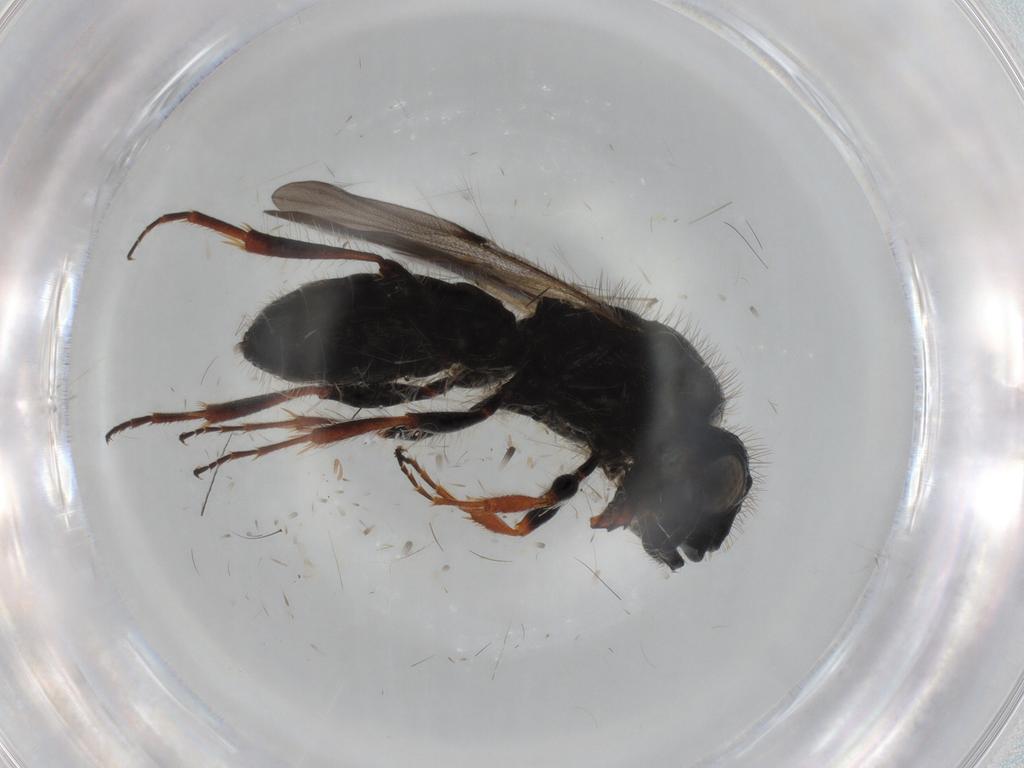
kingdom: Animalia
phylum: Arthropoda
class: Insecta
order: Hymenoptera
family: Scelionidae
